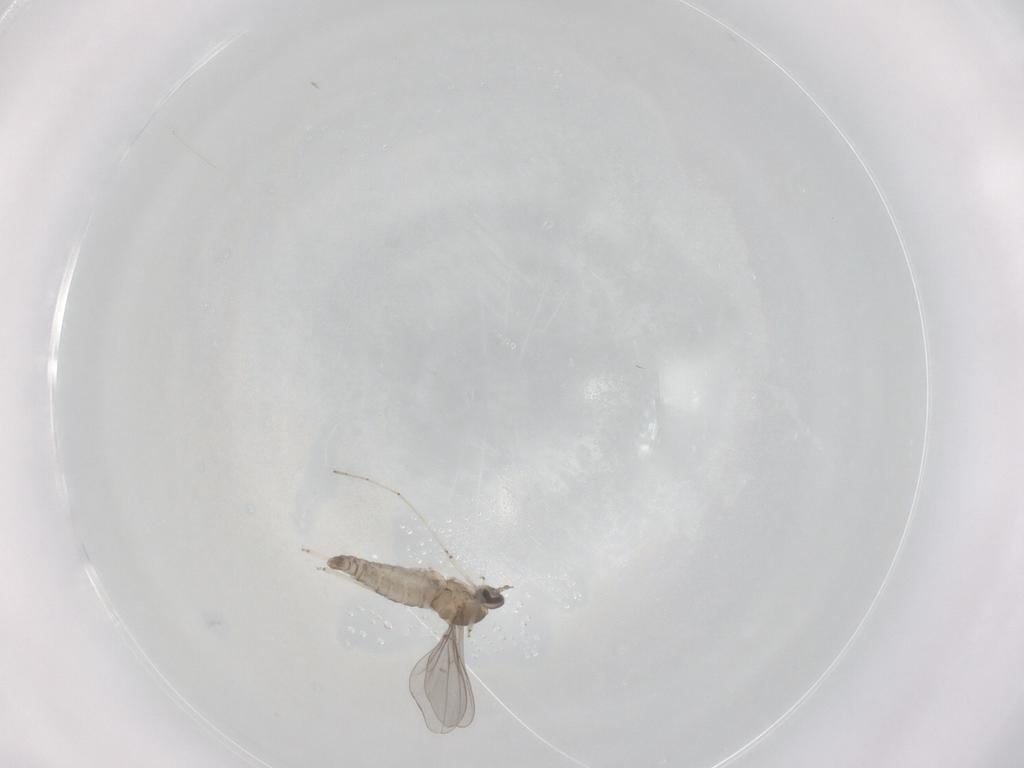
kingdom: Animalia
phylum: Arthropoda
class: Insecta
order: Diptera
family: Cecidomyiidae
